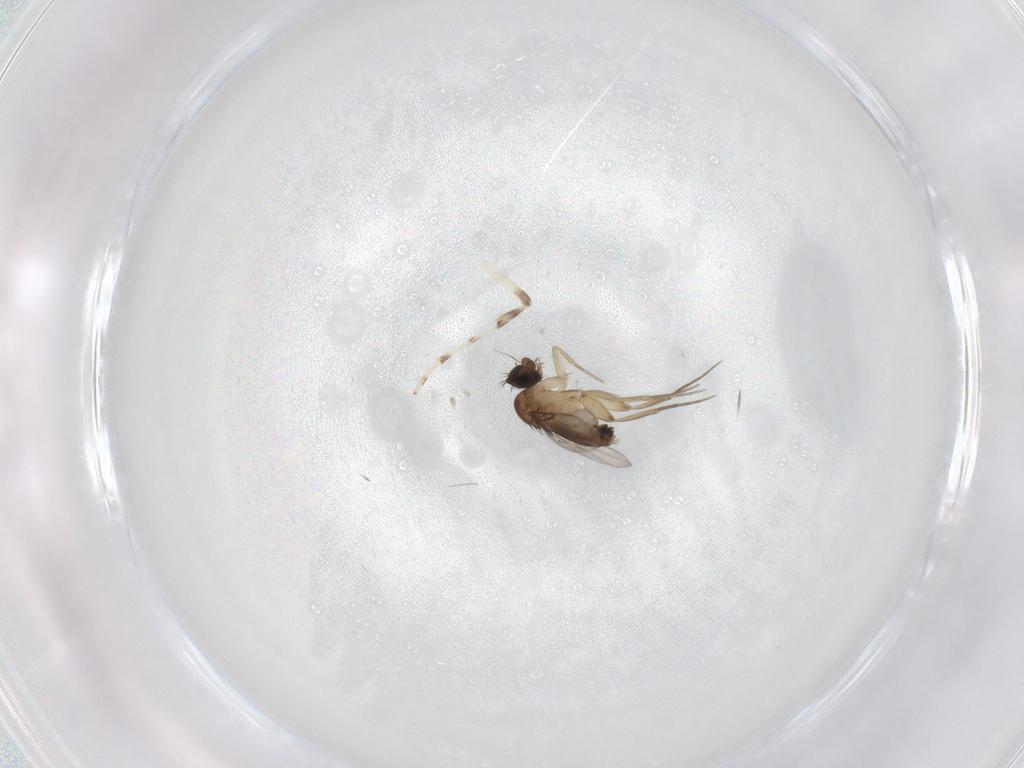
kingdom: Animalia
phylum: Arthropoda
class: Insecta
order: Diptera
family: Phoridae
